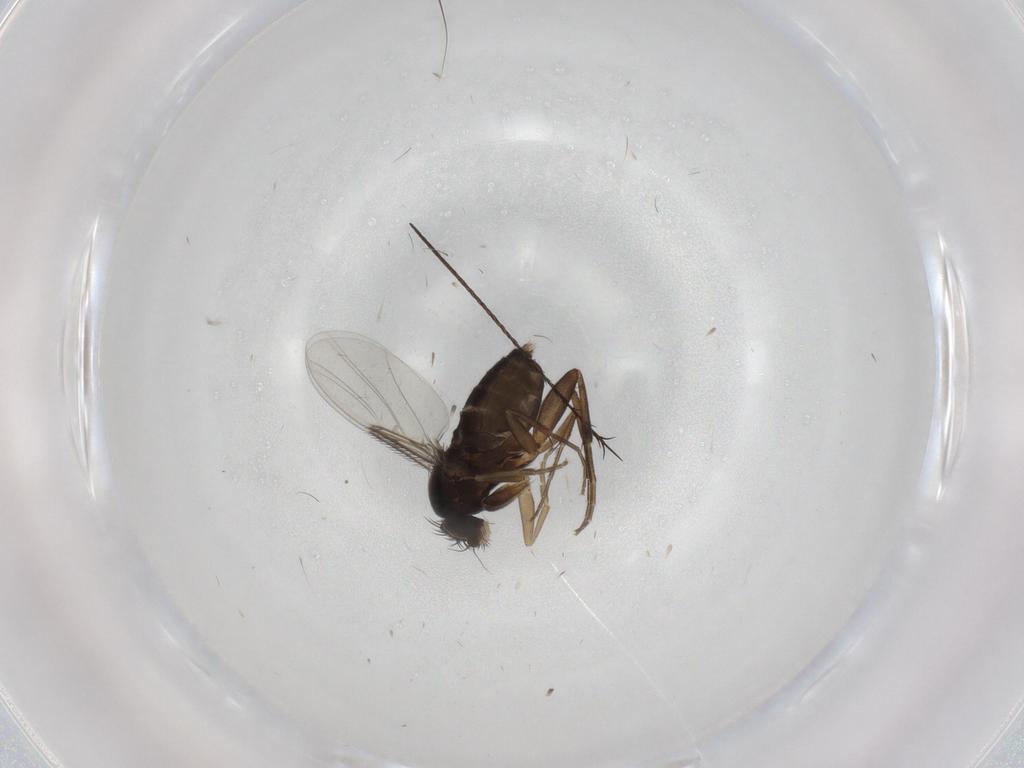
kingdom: Animalia
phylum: Arthropoda
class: Insecta
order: Diptera
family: Phoridae
